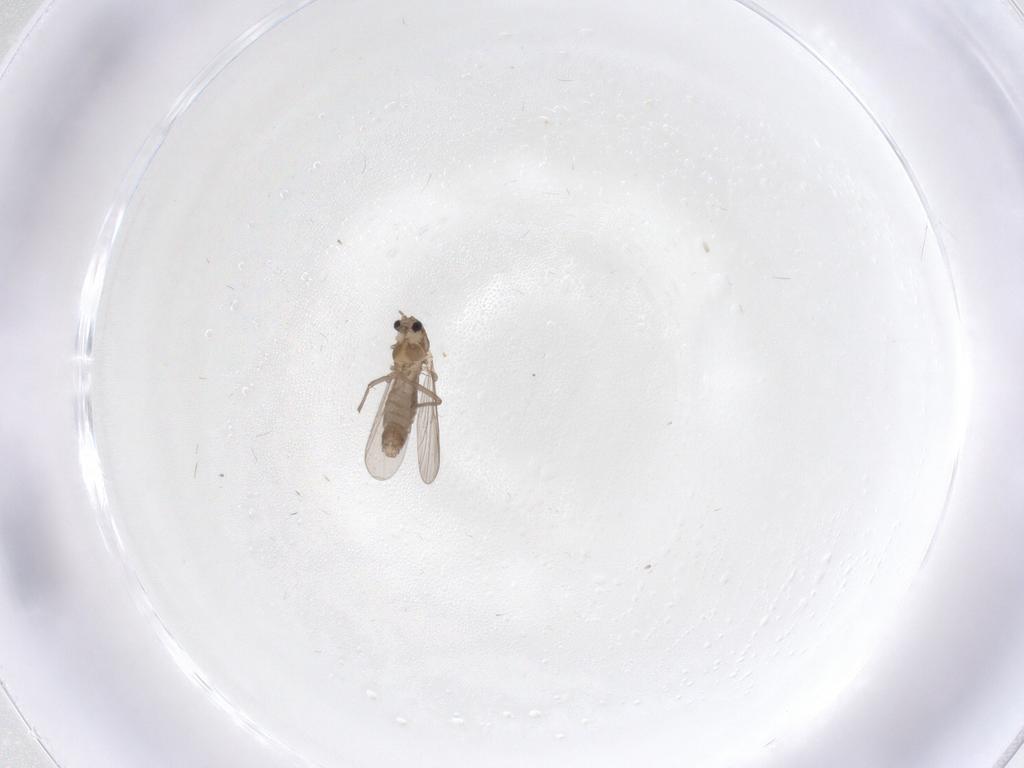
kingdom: Animalia
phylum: Arthropoda
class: Insecta
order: Diptera
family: Chironomidae
